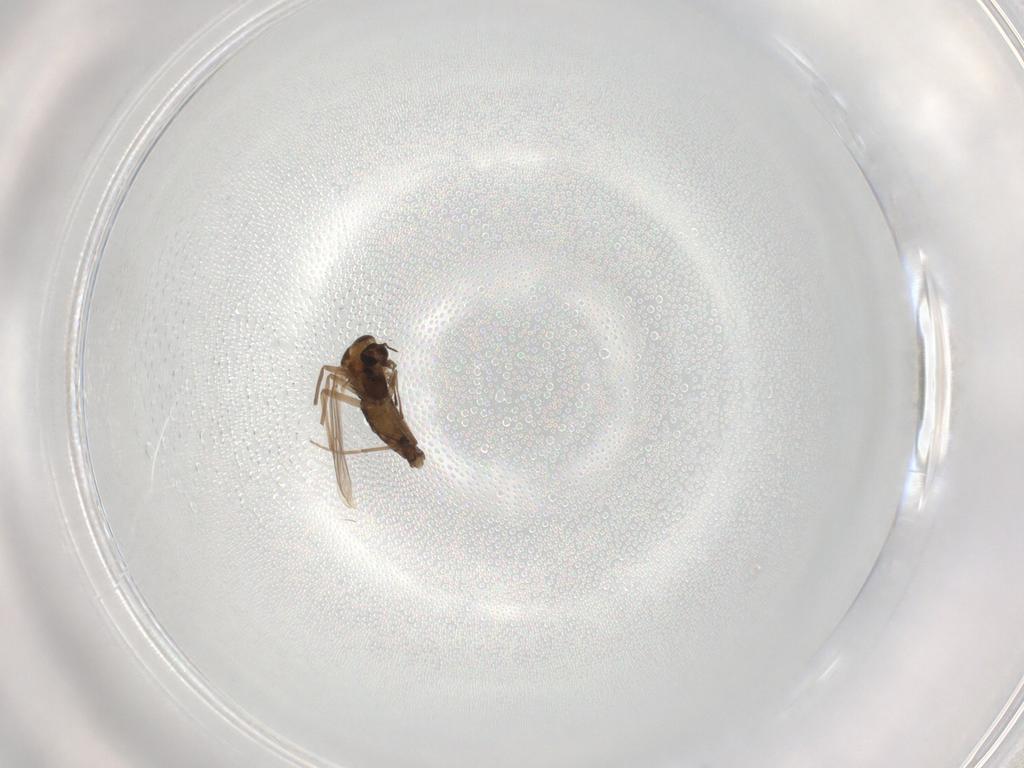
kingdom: Animalia
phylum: Arthropoda
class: Insecta
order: Diptera
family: Chironomidae
